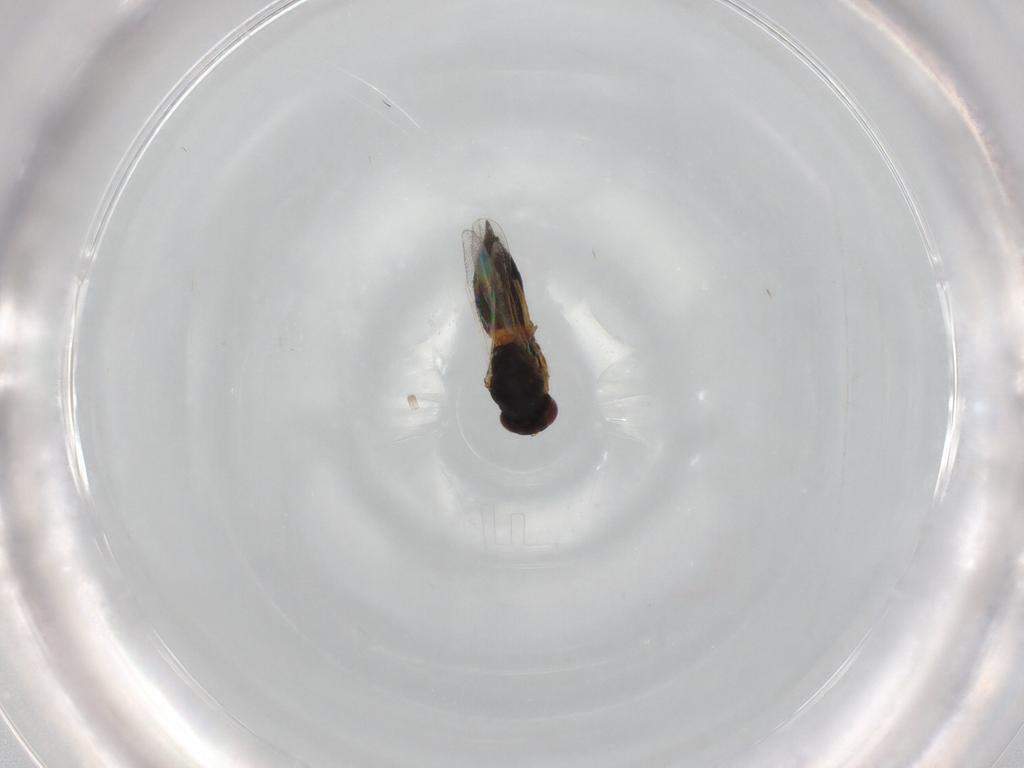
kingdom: Animalia
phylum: Arthropoda
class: Insecta
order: Hymenoptera
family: Eulophidae
